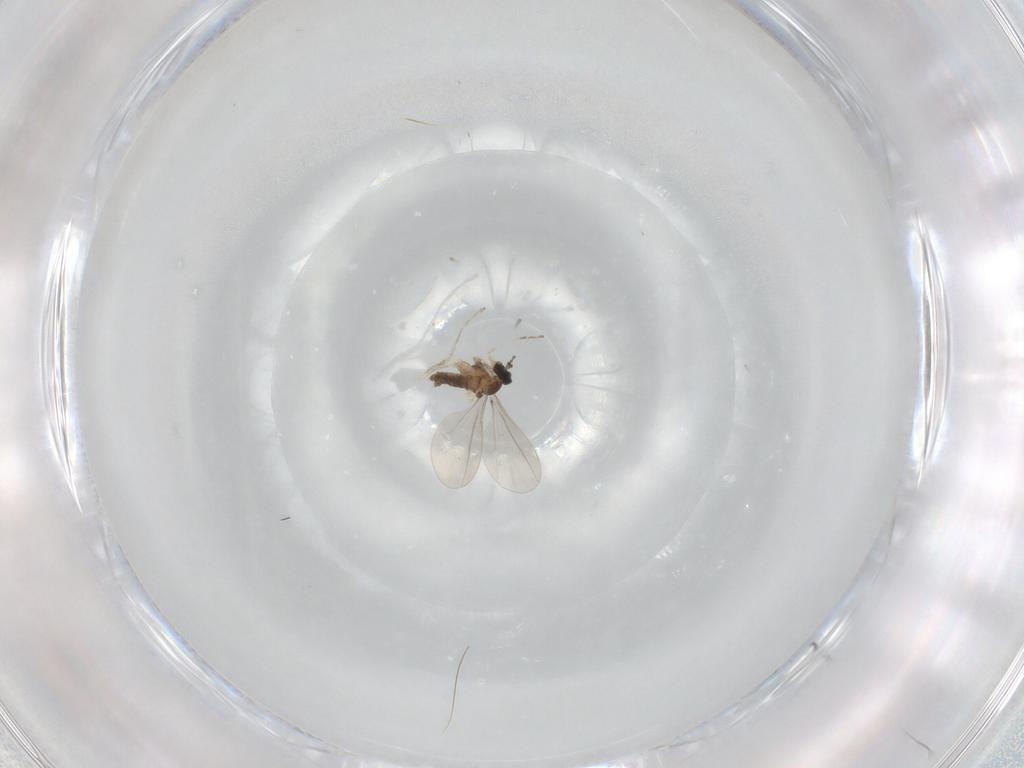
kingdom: Animalia
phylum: Arthropoda
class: Insecta
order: Diptera
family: Cecidomyiidae
